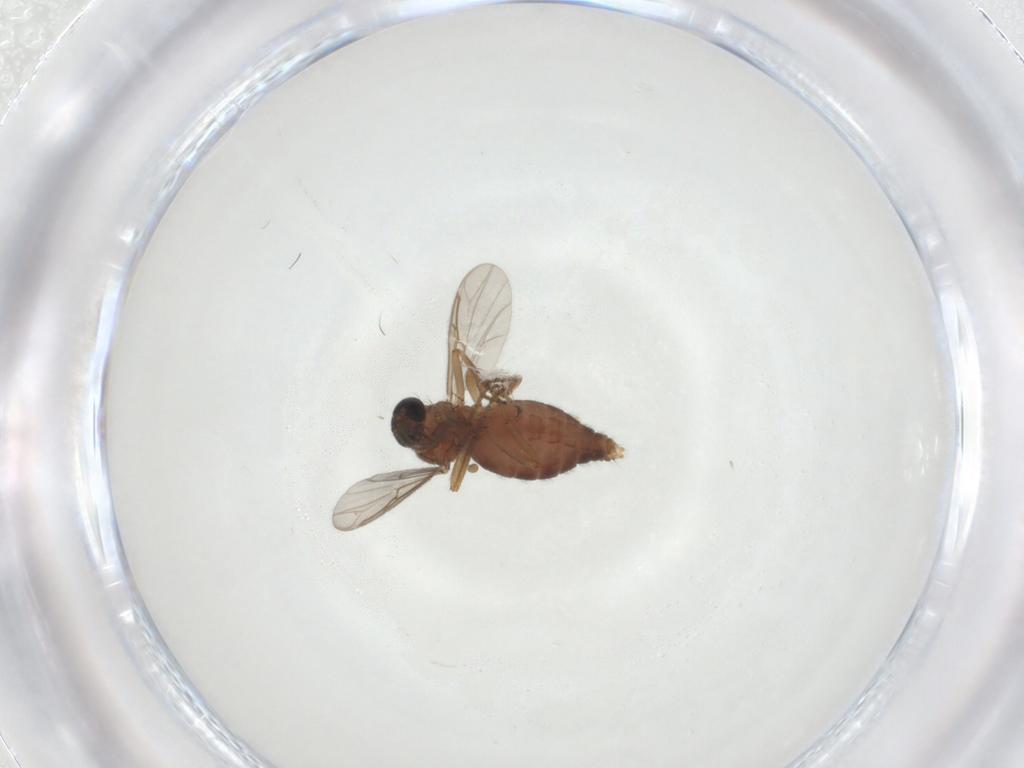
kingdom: Animalia
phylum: Arthropoda
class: Insecta
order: Diptera
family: Ceratopogonidae
